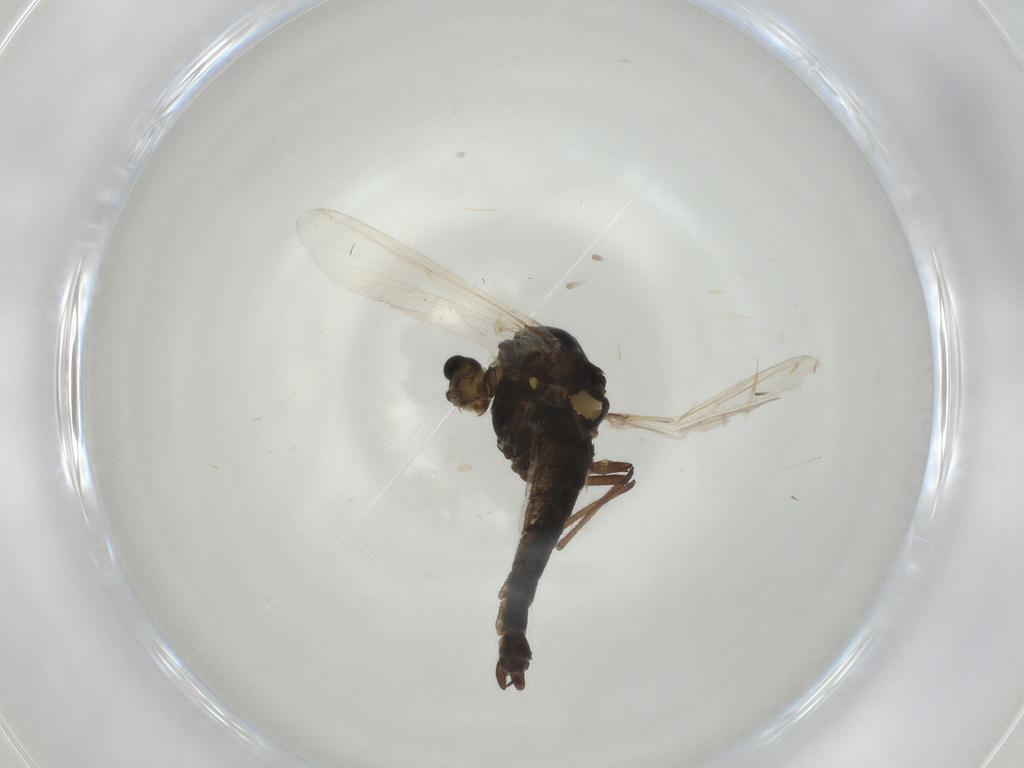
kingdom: Animalia
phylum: Arthropoda
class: Insecta
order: Diptera
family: Chironomidae
